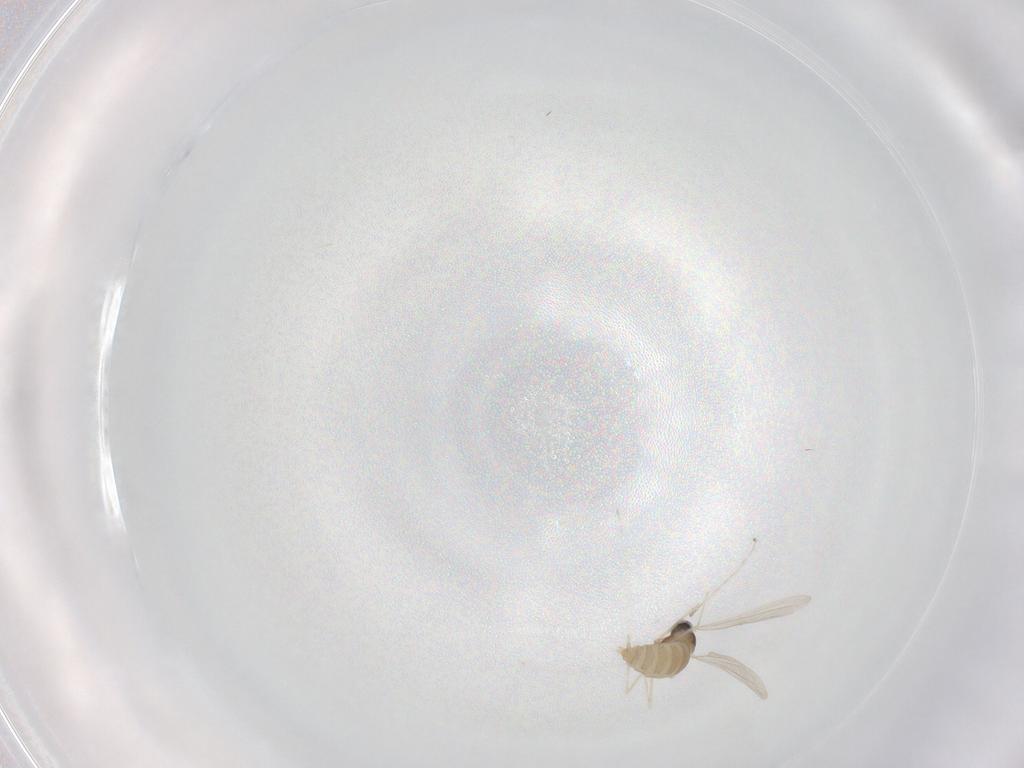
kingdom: Animalia
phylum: Arthropoda
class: Insecta
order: Diptera
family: Cecidomyiidae
